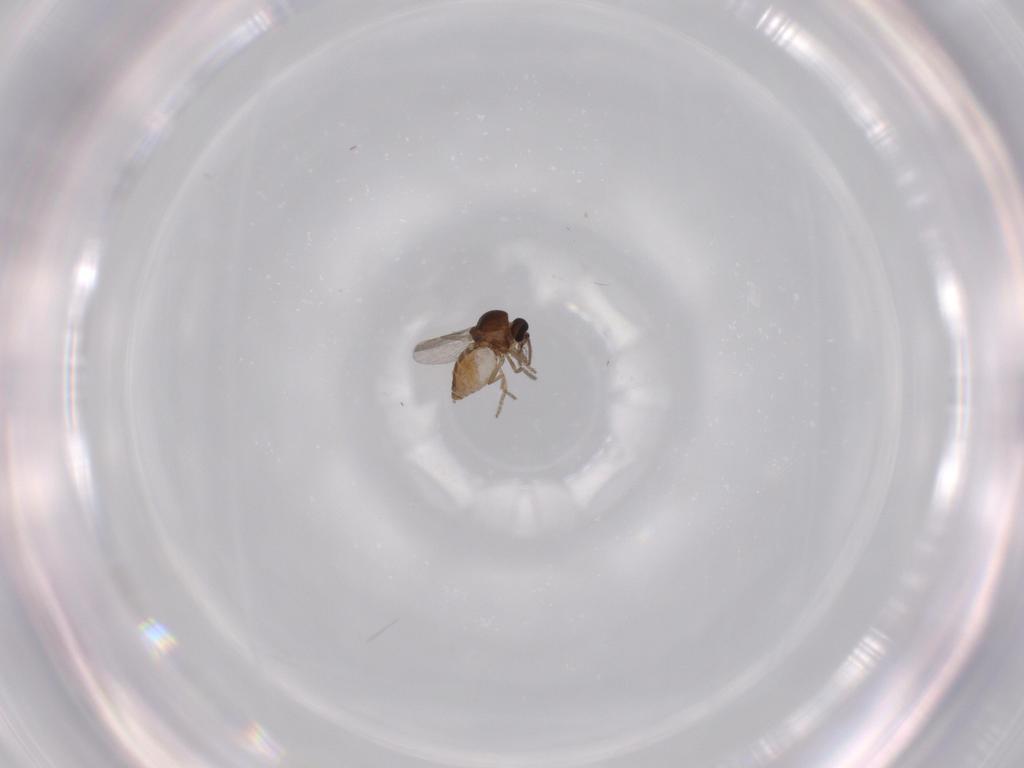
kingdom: Animalia
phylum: Arthropoda
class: Insecta
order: Diptera
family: Ceratopogonidae
